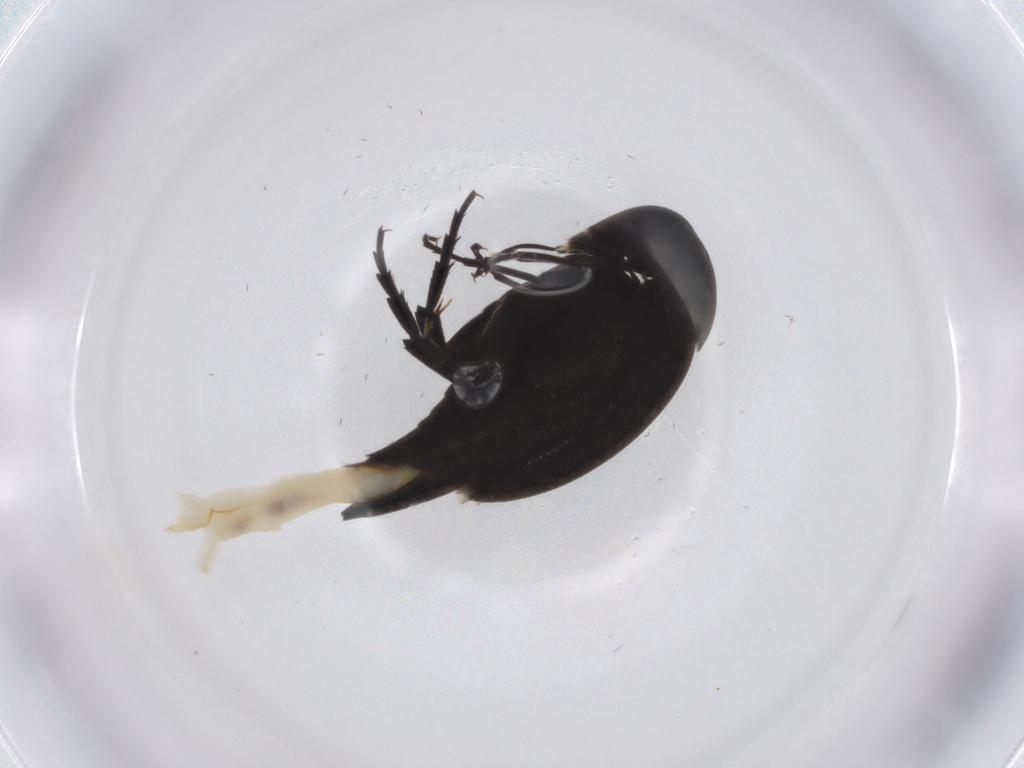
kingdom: Animalia
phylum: Arthropoda
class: Insecta
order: Coleoptera
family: Mordellidae
